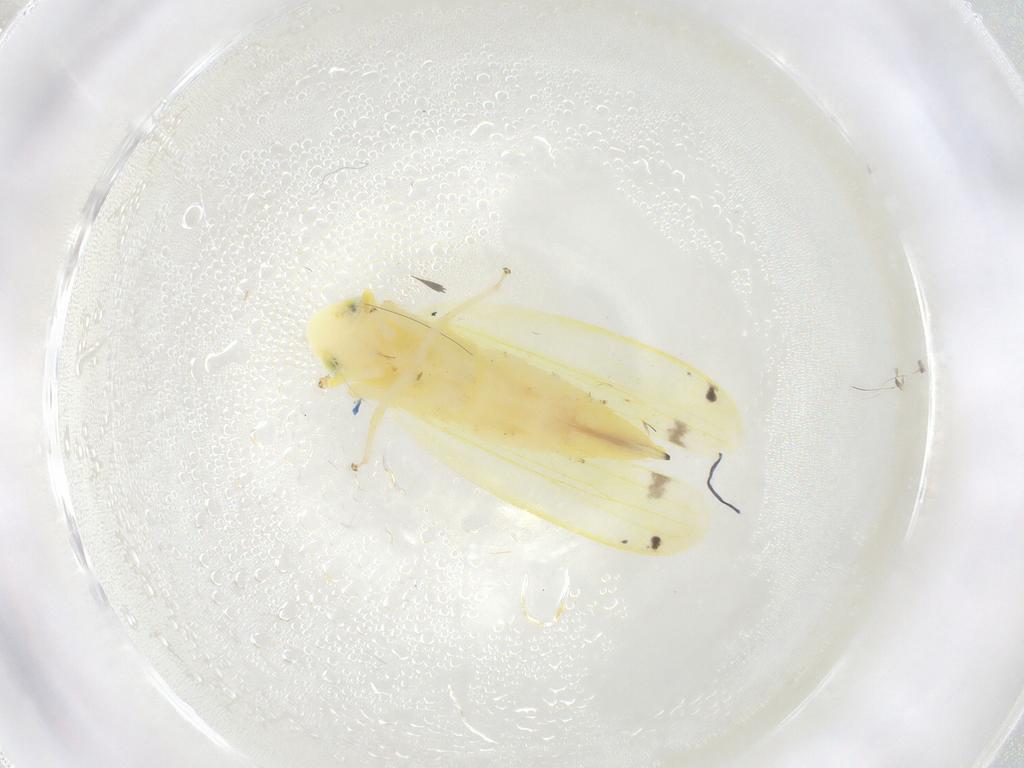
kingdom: Animalia
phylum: Arthropoda
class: Insecta
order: Hemiptera
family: Cicadellidae
